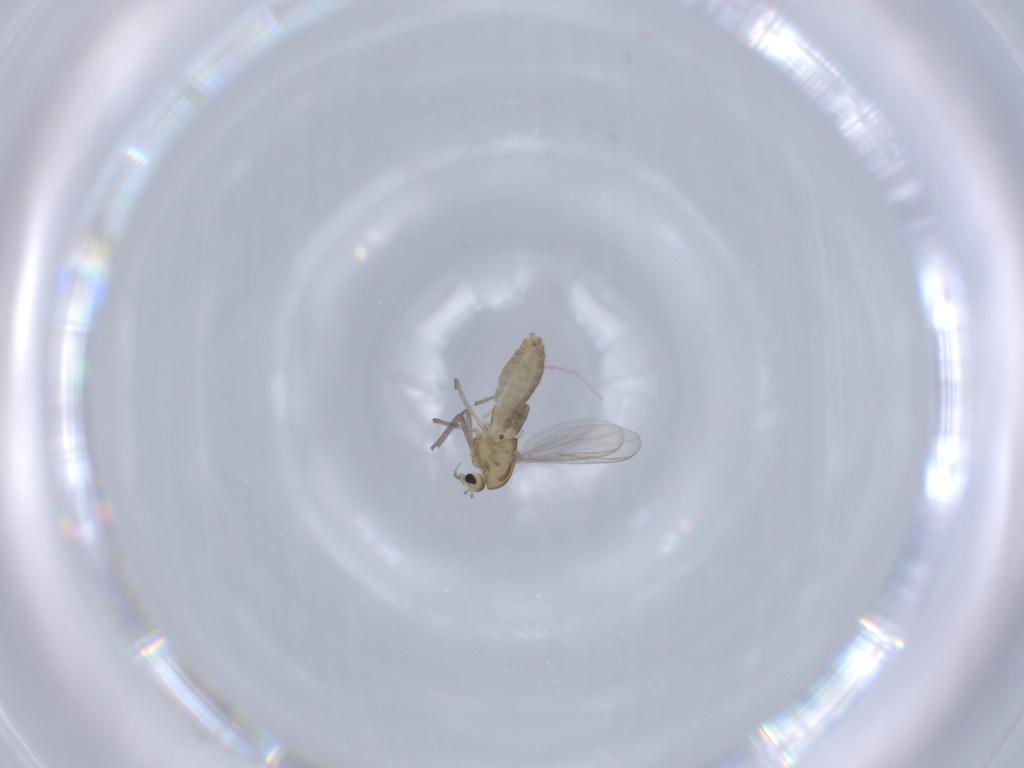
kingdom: Animalia
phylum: Arthropoda
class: Insecta
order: Diptera
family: Chironomidae
